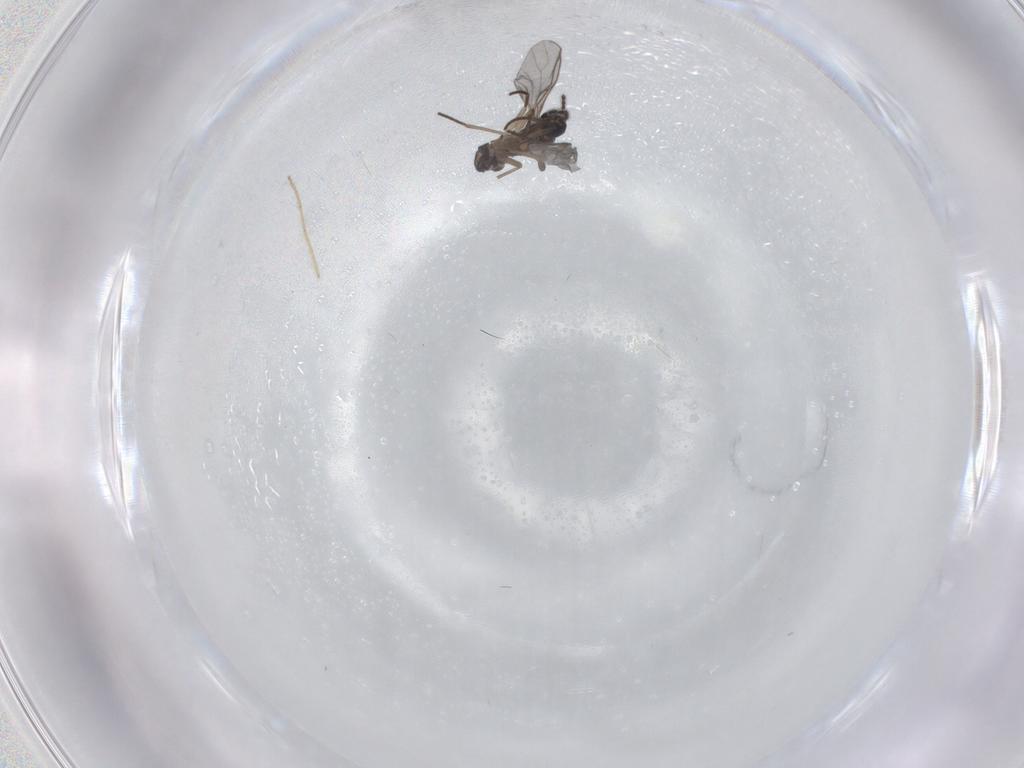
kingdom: Animalia
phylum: Arthropoda
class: Insecta
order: Diptera
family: Chironomidae
